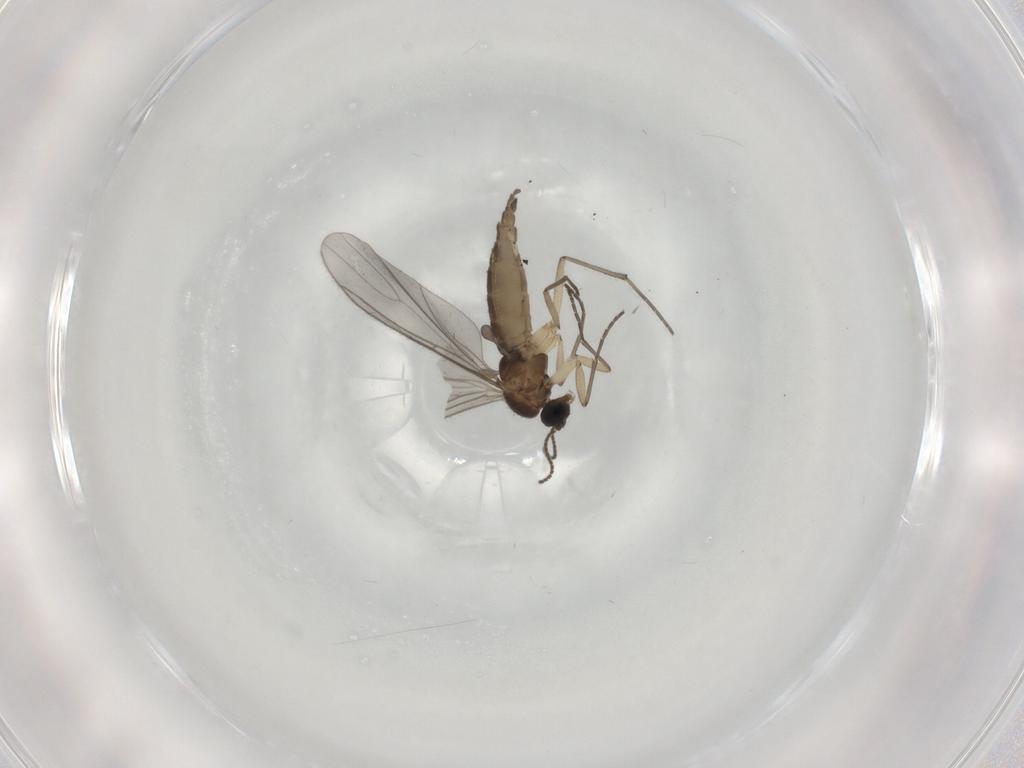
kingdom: Animalia
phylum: Arthropoda
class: Insecta
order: Diptera
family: Sciaridae
